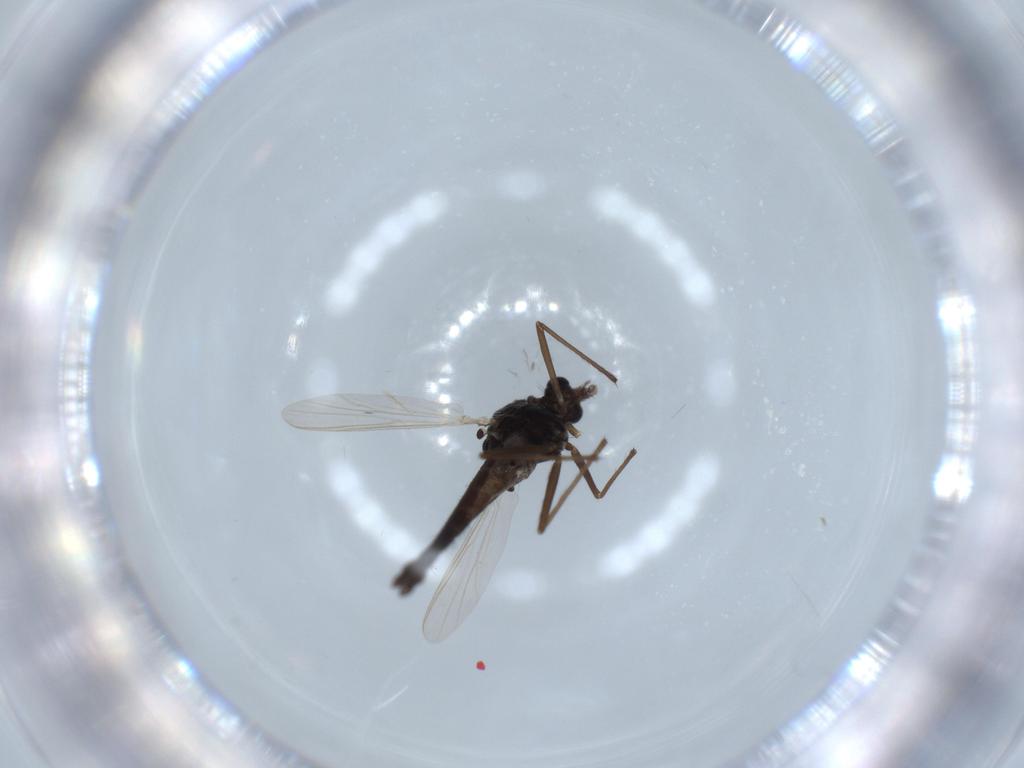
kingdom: Animalia
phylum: Arthropoda
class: Insecta
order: Diptera
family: Chironomidae
